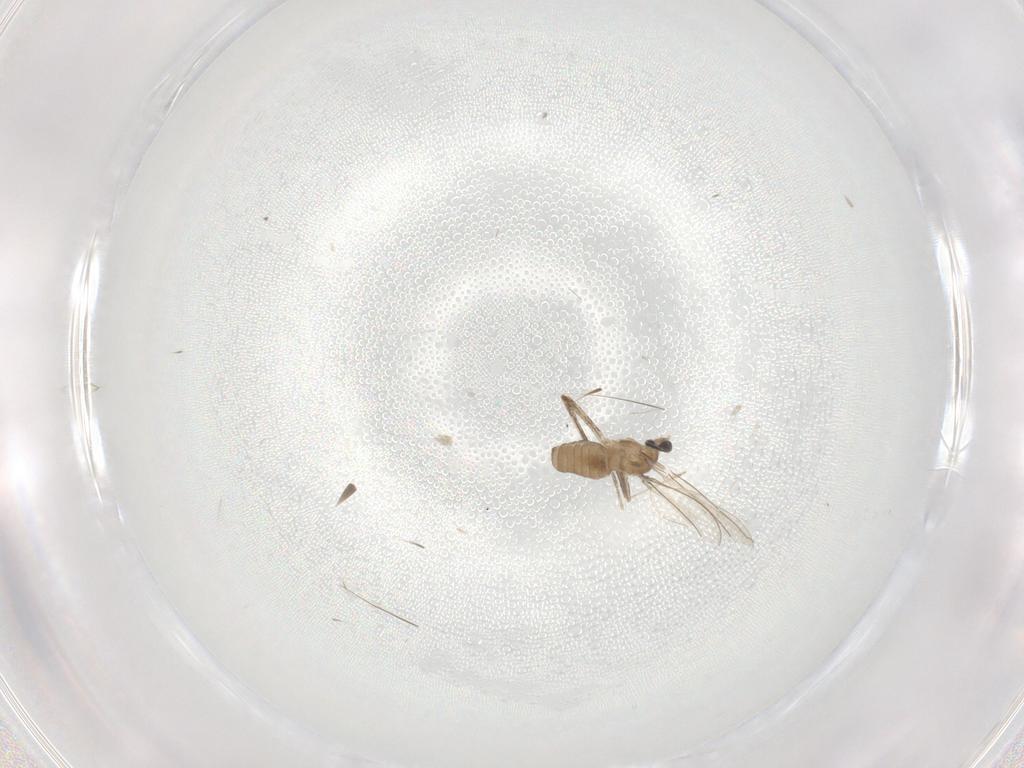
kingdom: Animalia
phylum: Arthropoda
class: Insecta
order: Diptera
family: Cecidomyiidae
